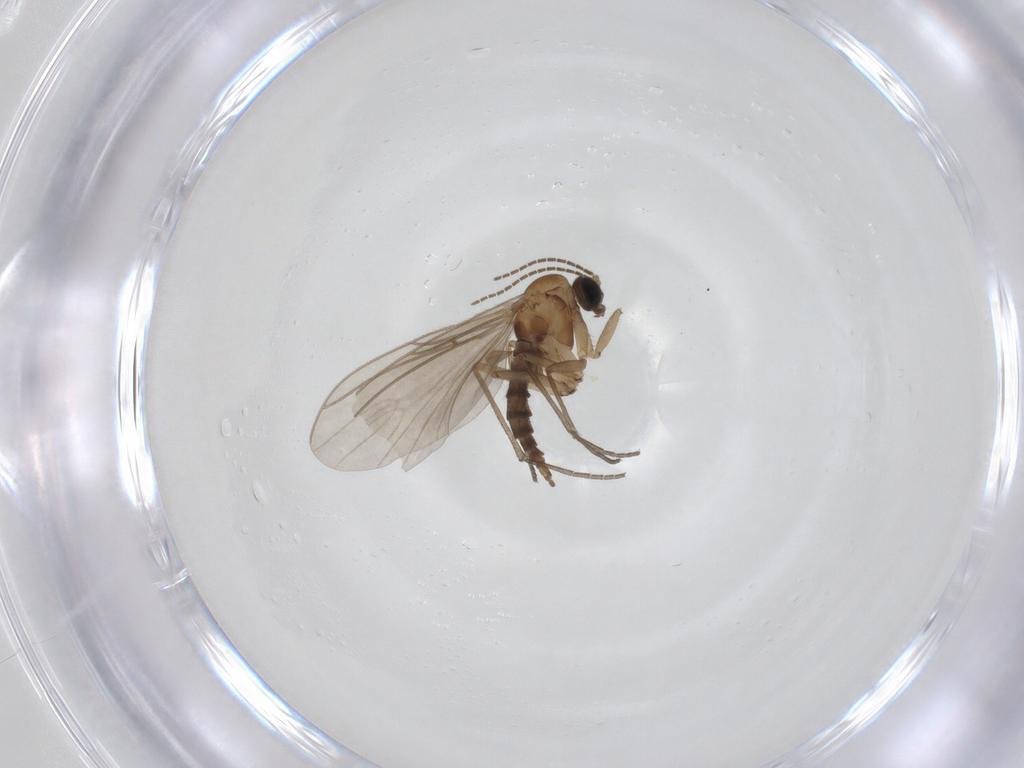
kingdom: Animalia
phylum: Arthropoda
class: Insecta
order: Diptera
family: Sciaridae
